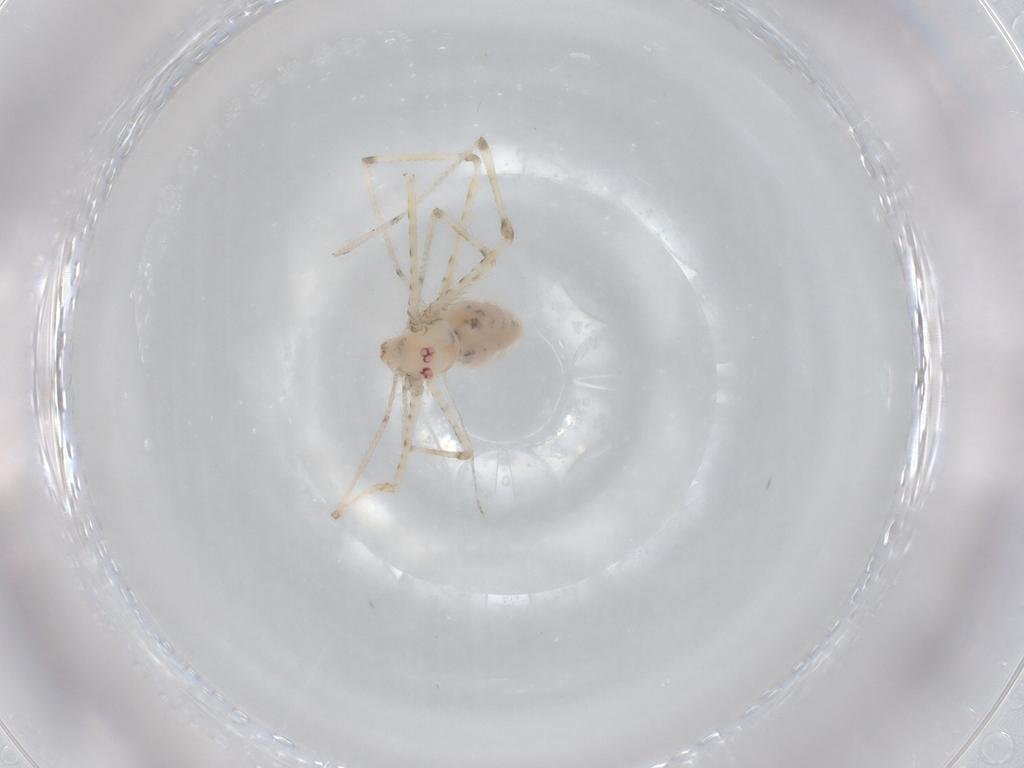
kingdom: Animalia
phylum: Arthropoda
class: Arachnida
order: Araneae
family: Pholcidae
